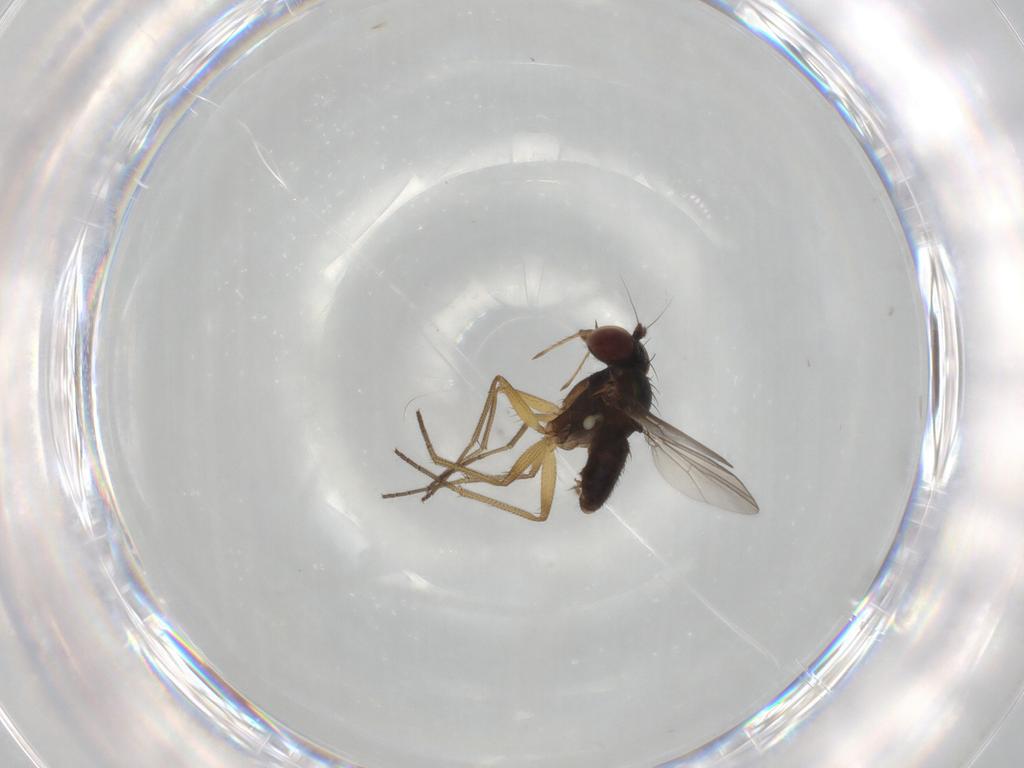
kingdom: Animalia
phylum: Arthropoda
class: Insecta
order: Diptera
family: Dolichopodidae
